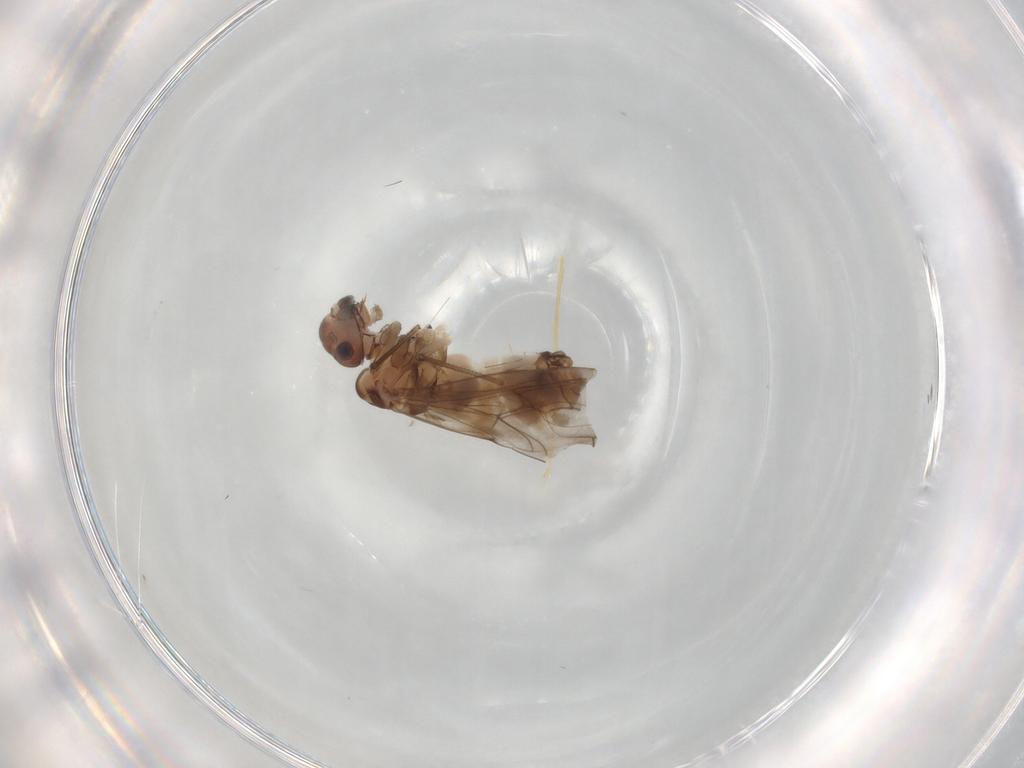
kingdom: Animalia
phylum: Arthropoda
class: Insecta
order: Psocodea
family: Peripsocidae
